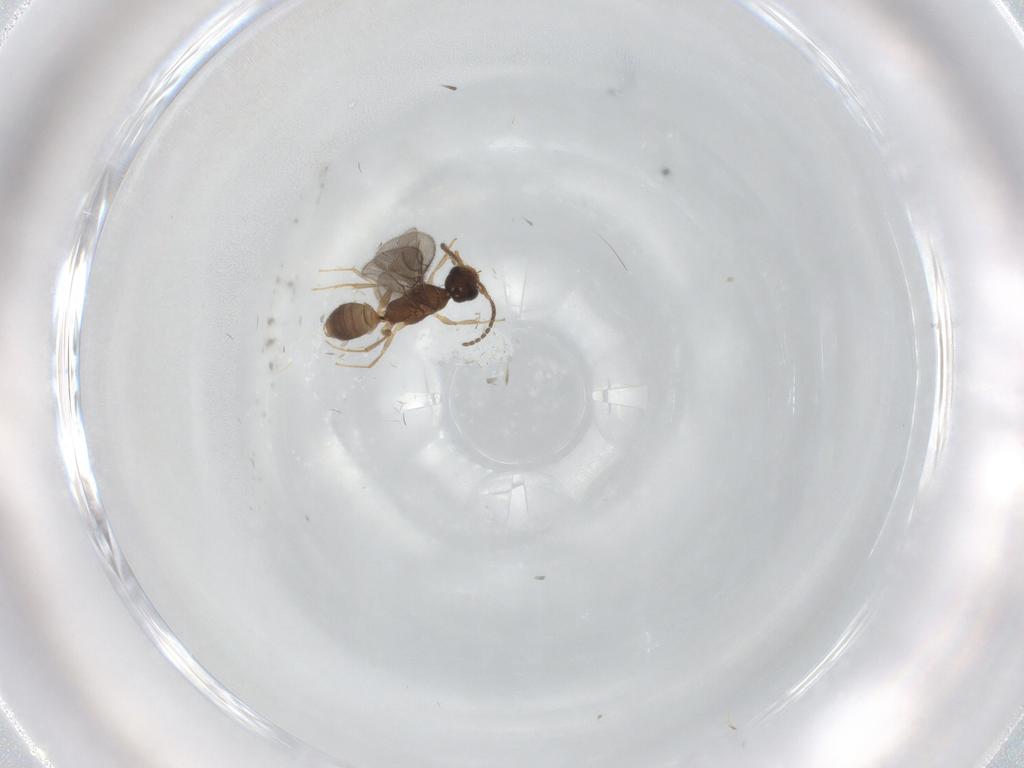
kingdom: Animalia
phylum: Arthropoda
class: Insecta
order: Hymenoptera
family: Bethylidae
